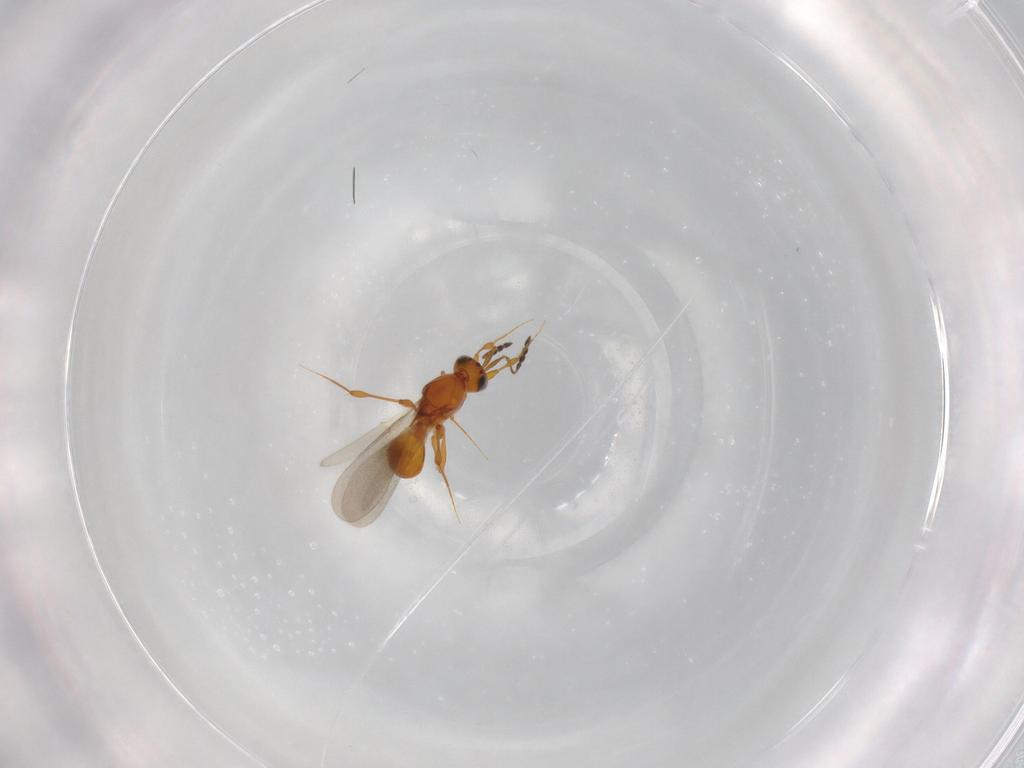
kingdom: Animalia
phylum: Arthropoda
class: Insecta
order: Hymenoptera
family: Platygastridae
